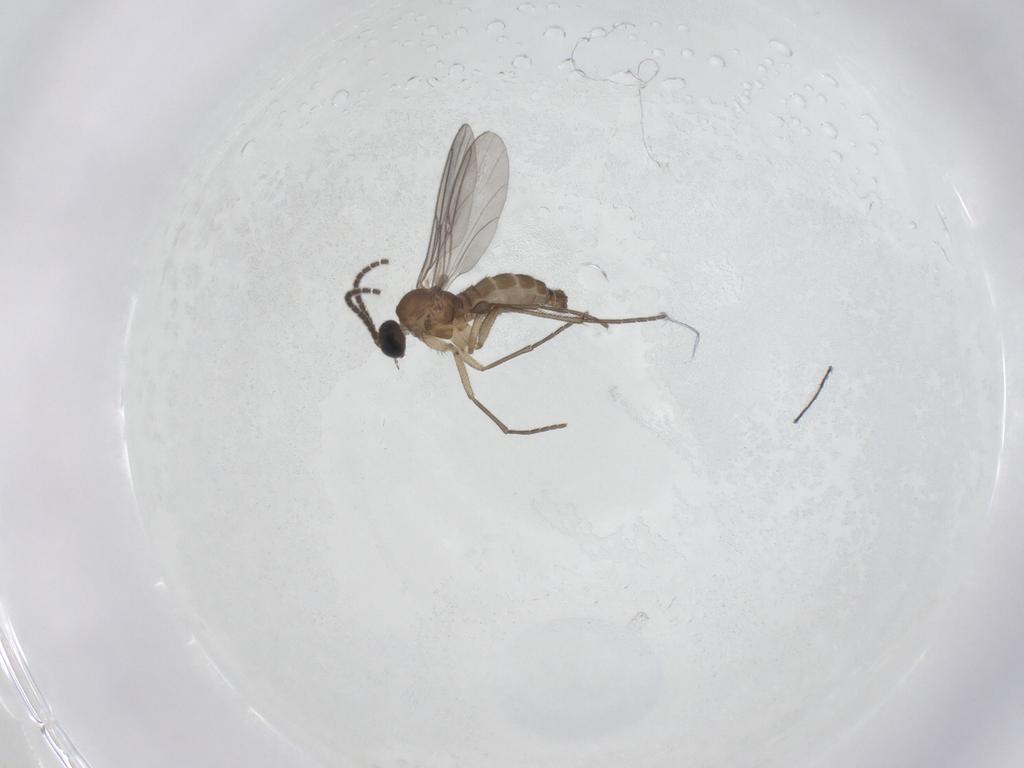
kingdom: Animalia
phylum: Arthropoda
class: Insecta
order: Diptera
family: Sciaridae
